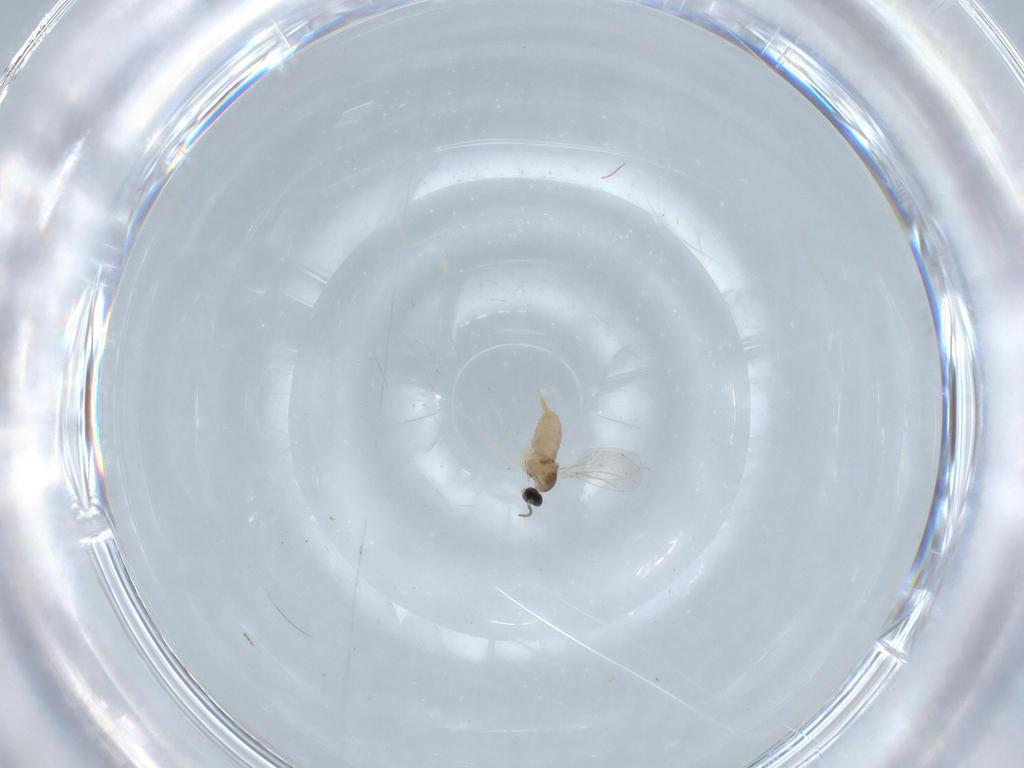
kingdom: Animalia
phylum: Arthropoda
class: Insecta
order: Diptera
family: Cecidomyiidae
